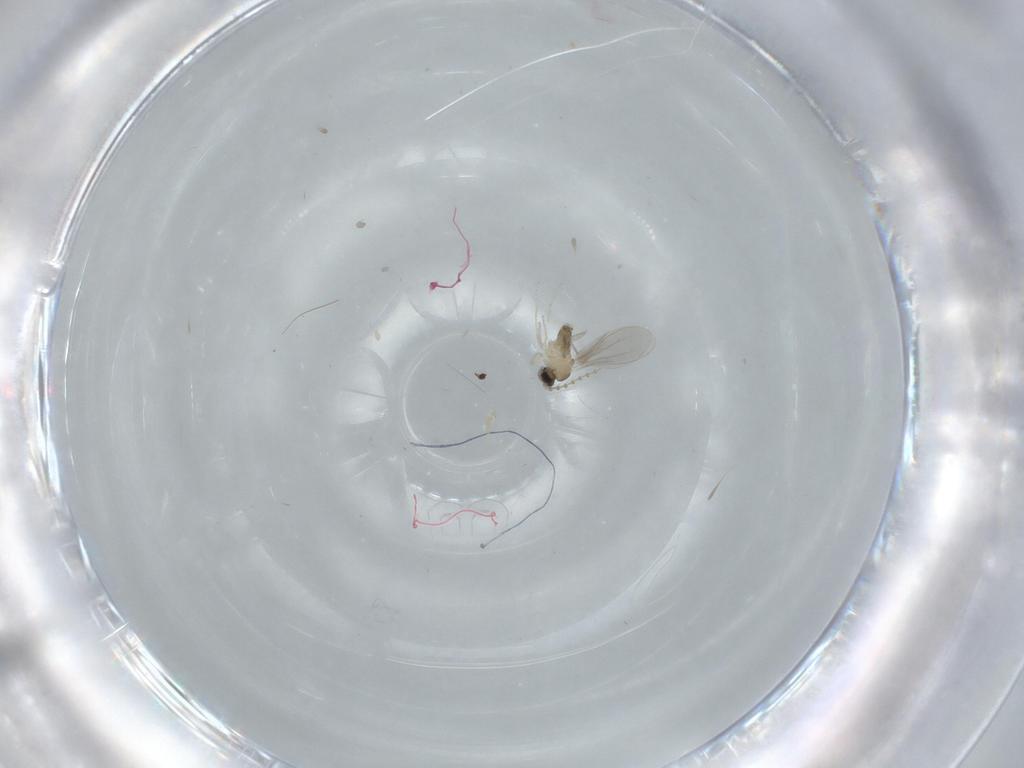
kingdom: Animalia
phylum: Arthropoda
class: Insecta
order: Diptera
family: Cecidomyiidae
